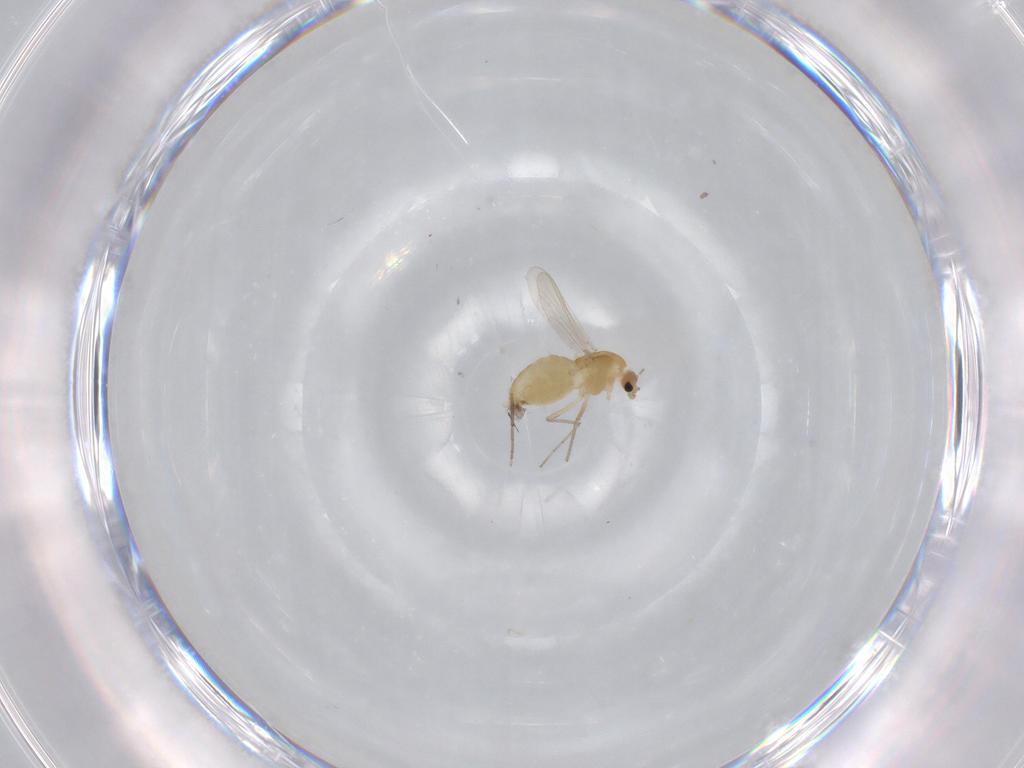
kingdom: Animalia
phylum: Arthropoda
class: Insecta
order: Diptera
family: Chironomidae
